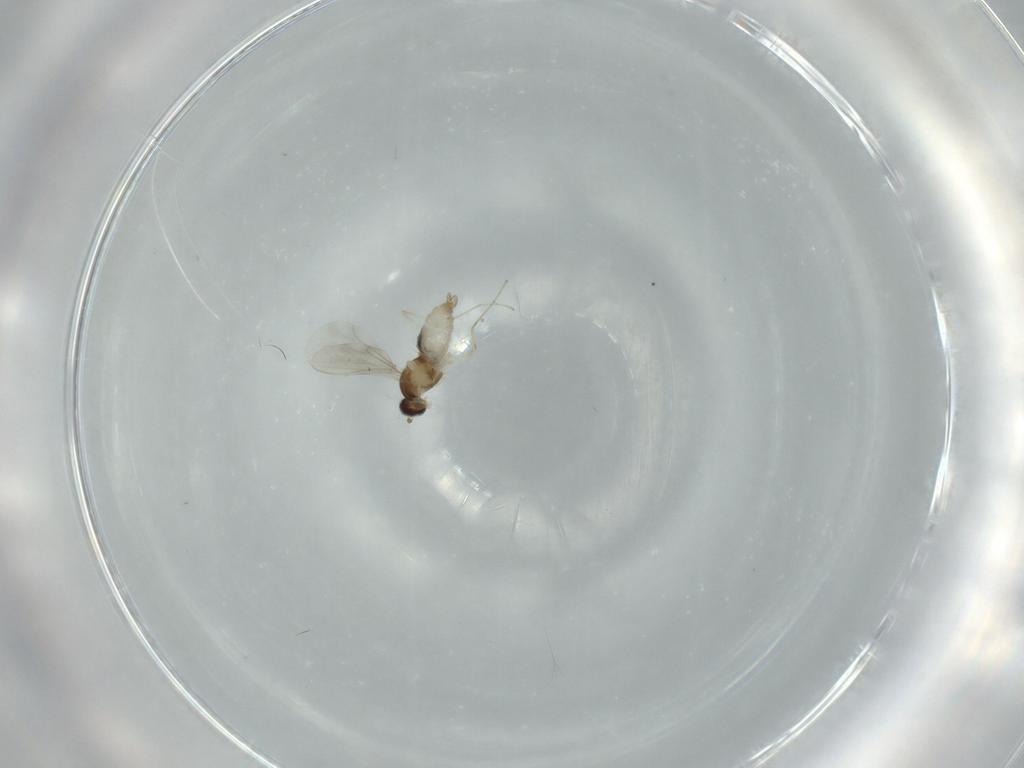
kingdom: Animalia
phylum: Arthropoda
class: Insecta
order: Diptera
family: Cecidomyiidae
